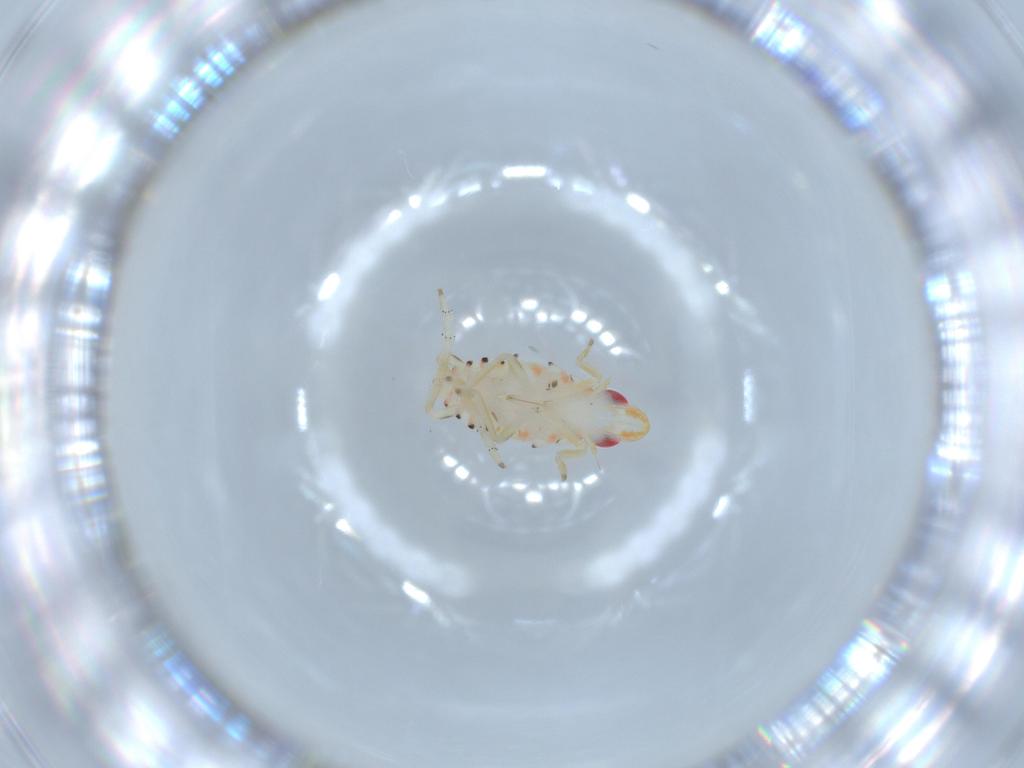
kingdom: Animalia
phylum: Arthropoda
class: Insecta
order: Hemiptera
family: Tropiduchidae
